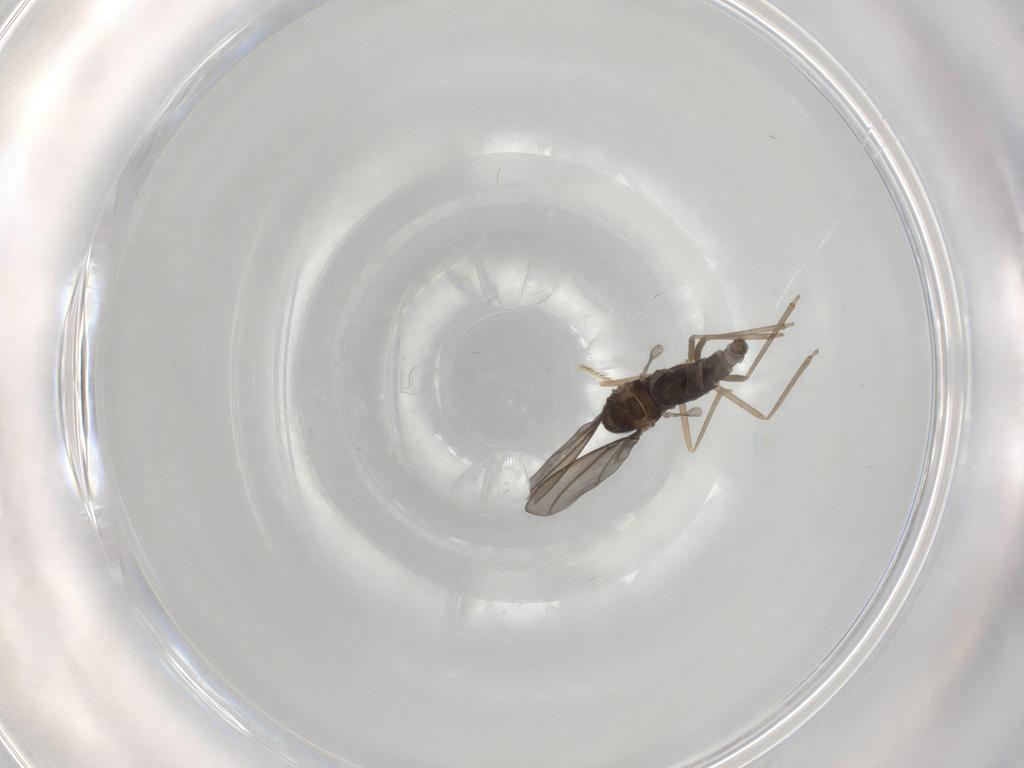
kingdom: Animalia
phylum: Arthropoda
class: Insecta
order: Diptera
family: Ceratopogonidae
